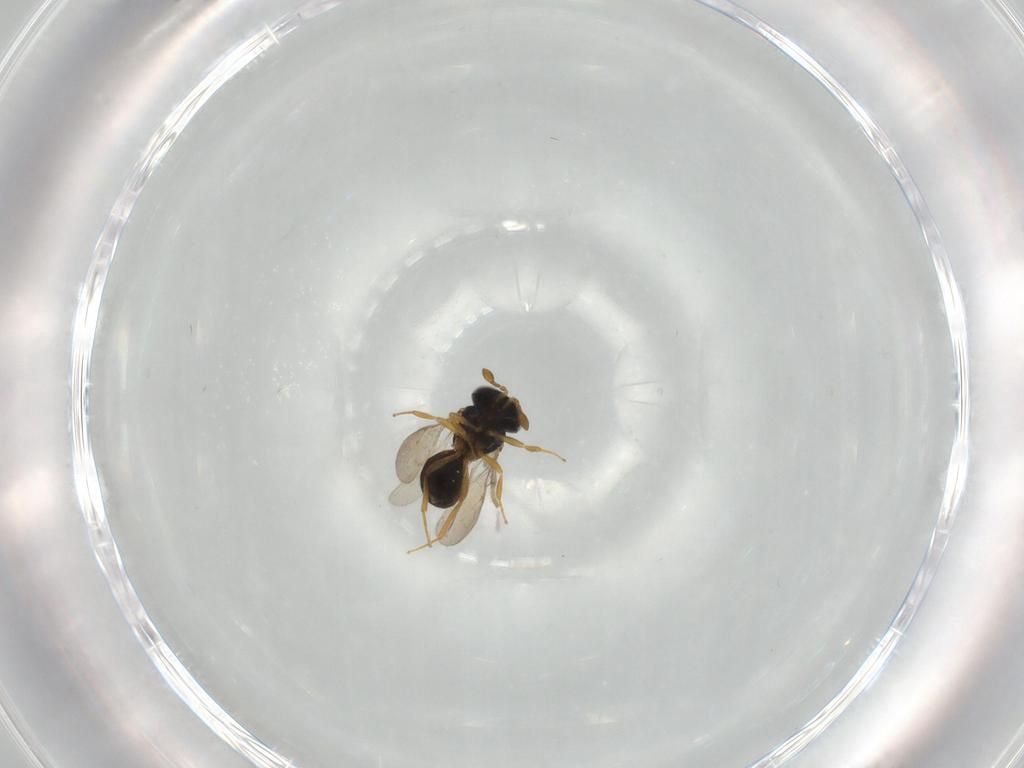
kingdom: Animalia
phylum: Arthropoda
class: Insecta
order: Hymenoptera
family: Scelionidae
